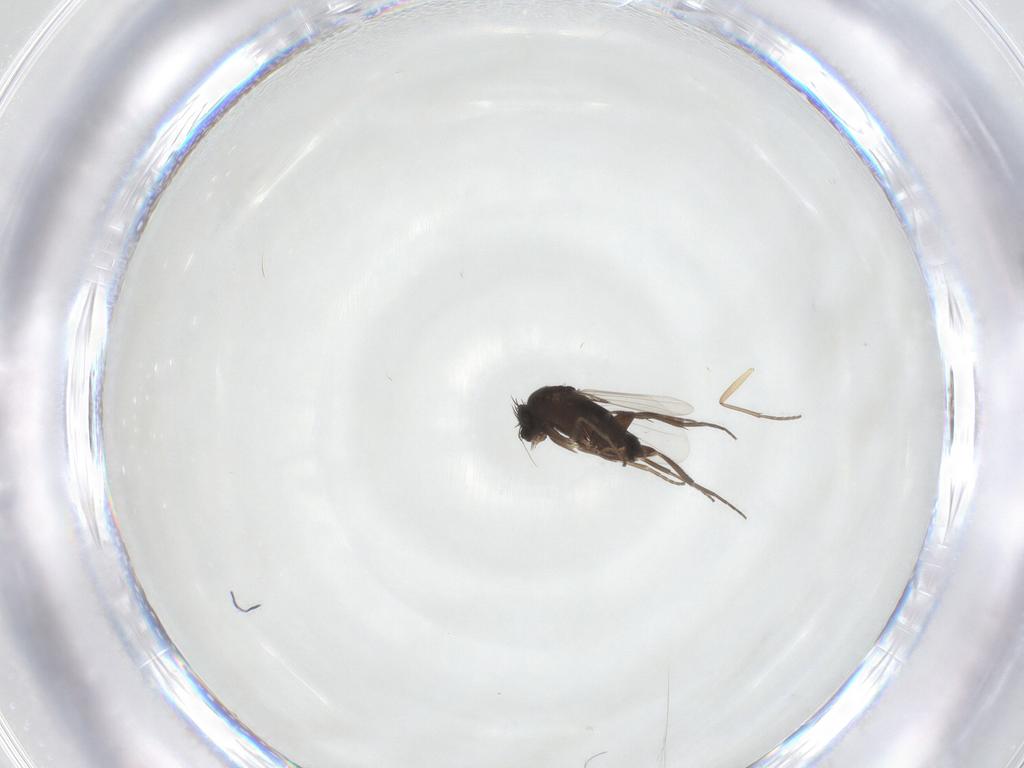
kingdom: Animalia
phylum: Arthropoda
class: Insecta
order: Diptera
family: Phoridae
